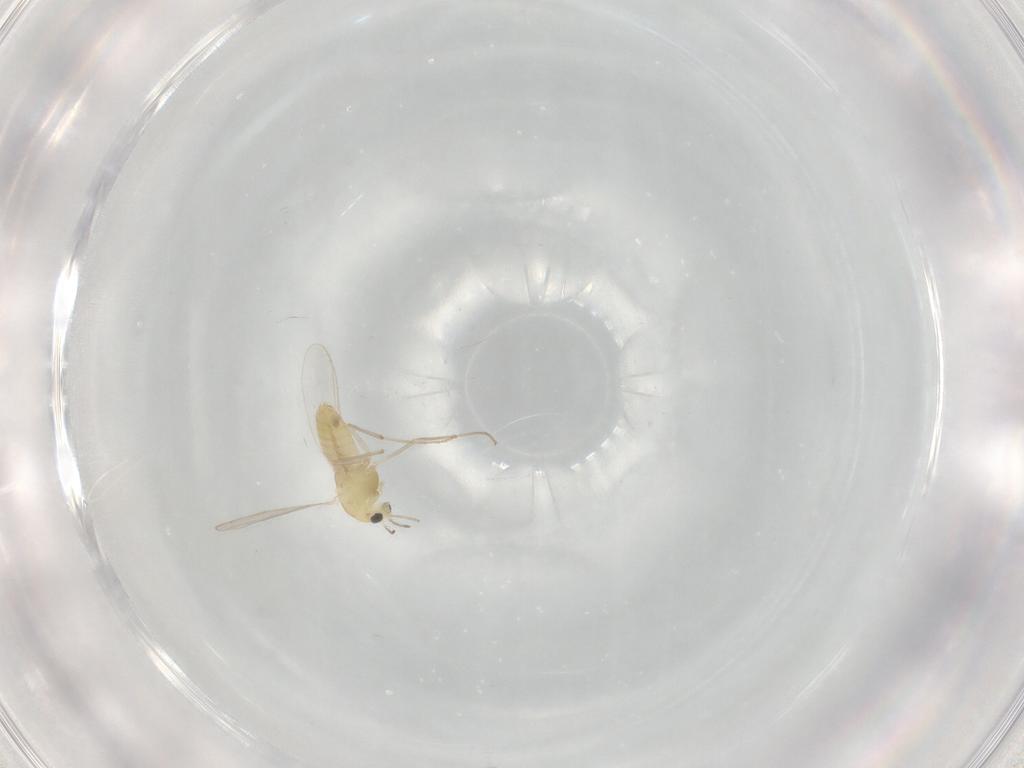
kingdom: Animalia
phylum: Arthropoda
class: Insecta
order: Diptera
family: Chironomidae
